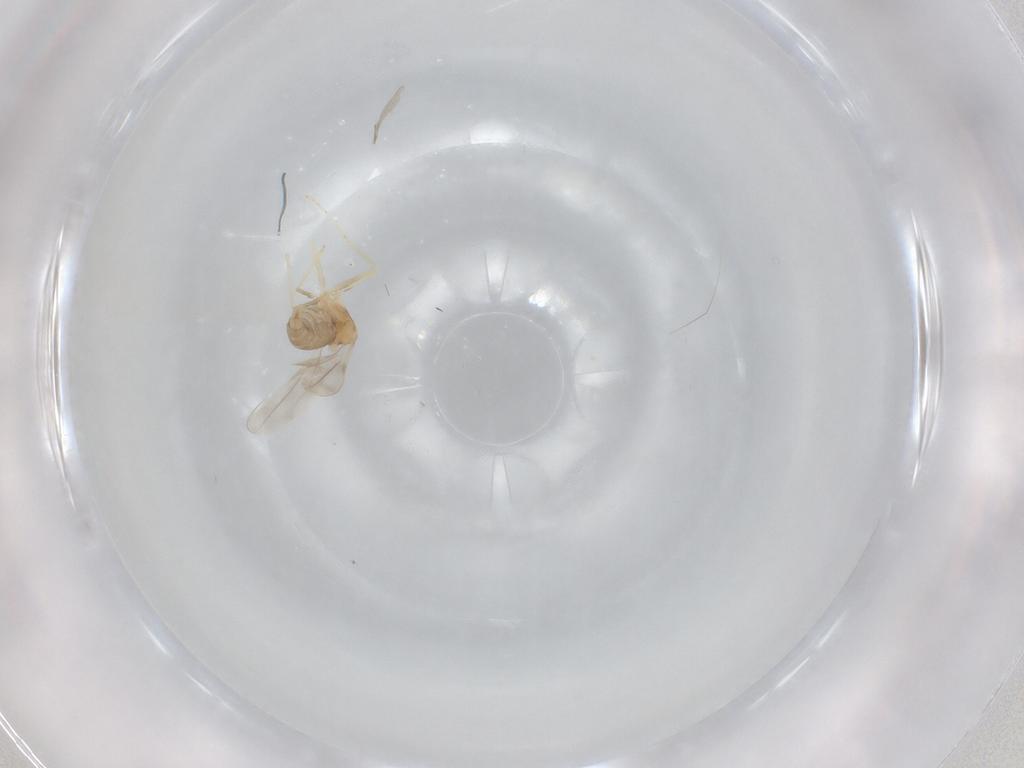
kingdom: Animalia
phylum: Arthropoda
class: Insecta
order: Diptera
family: Cecidomyiidae
